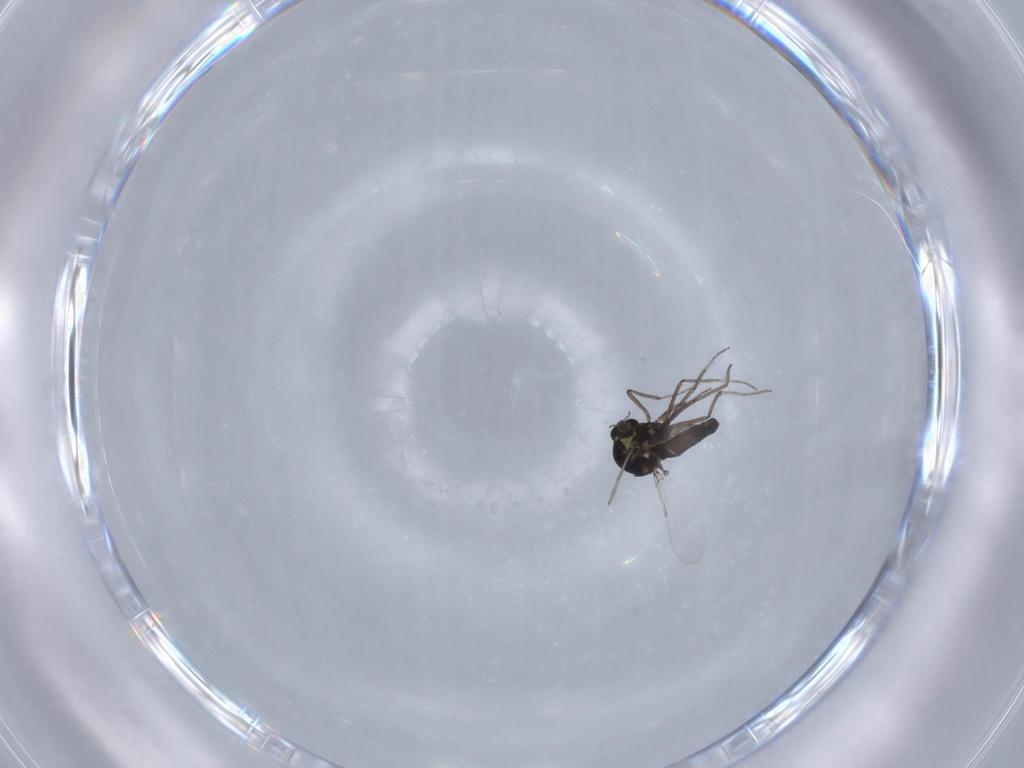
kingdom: Animalia
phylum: Arthropoda
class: Insecta
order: Diptera
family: Ceratopogonidae
